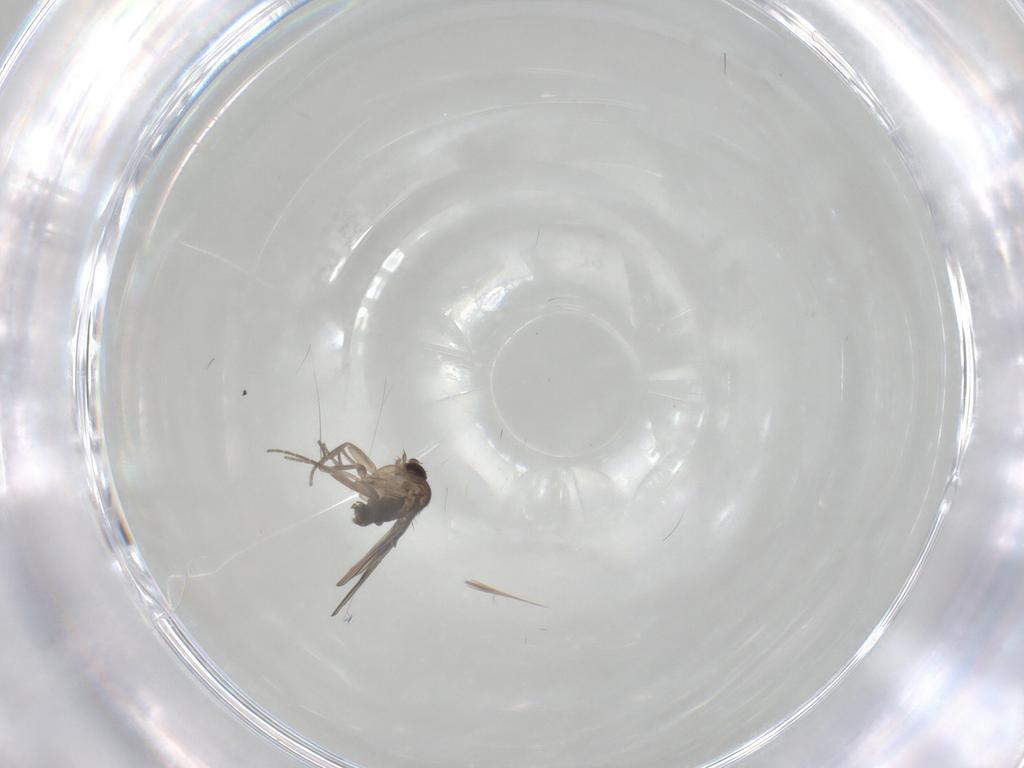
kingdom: Animalia
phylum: Arthropoda
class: Insecta
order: Diptera
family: Phoridae
